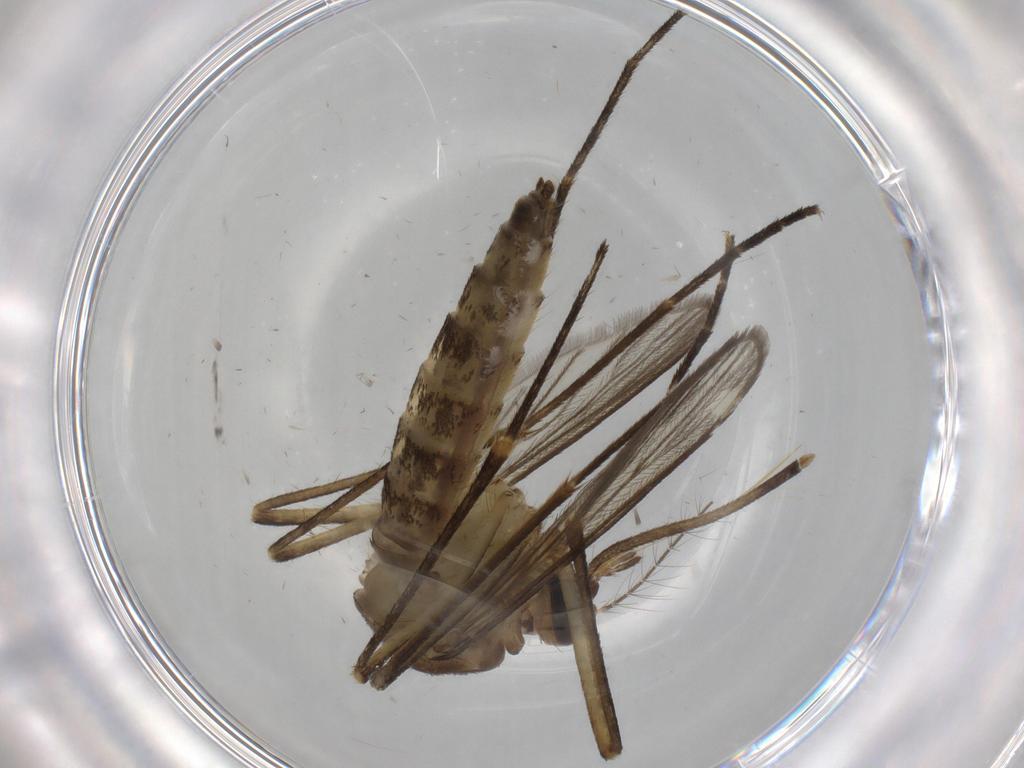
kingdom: Animalia
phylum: Arthropoda
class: Insecta
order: Diptera
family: Culicidae
